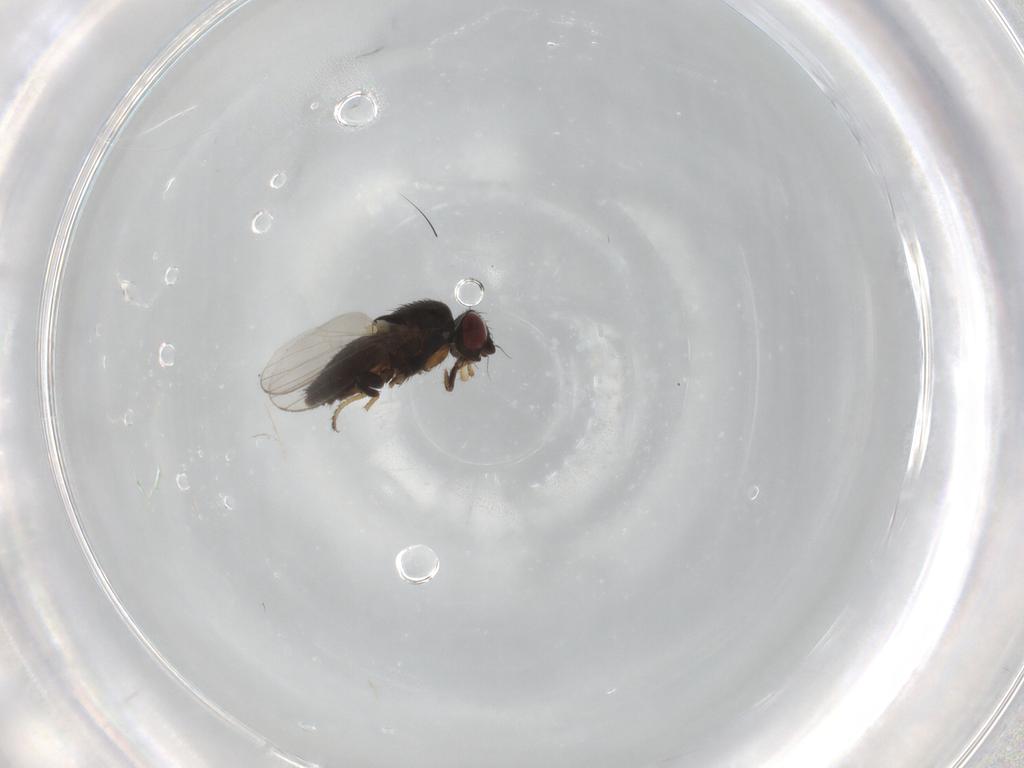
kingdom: Animalia
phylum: Arthropoda
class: Insecta
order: Diptera
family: Milichiidae
